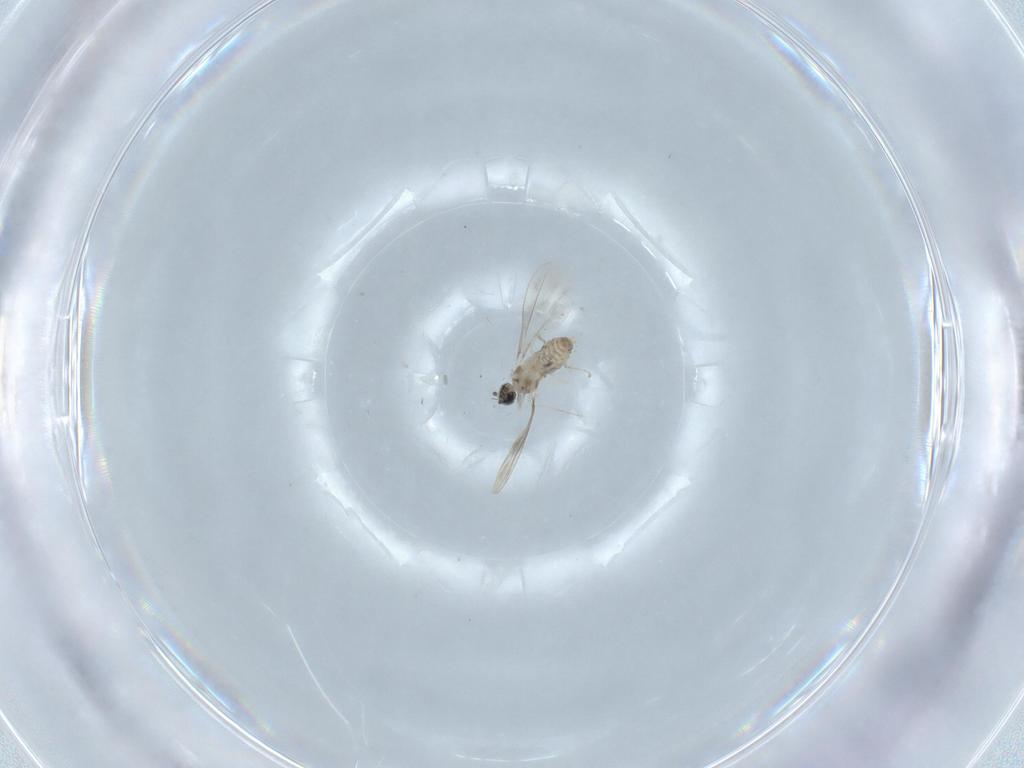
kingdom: Animalia
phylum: Arthropoda
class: Insecta
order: Diptera
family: Cecidomyiidae
